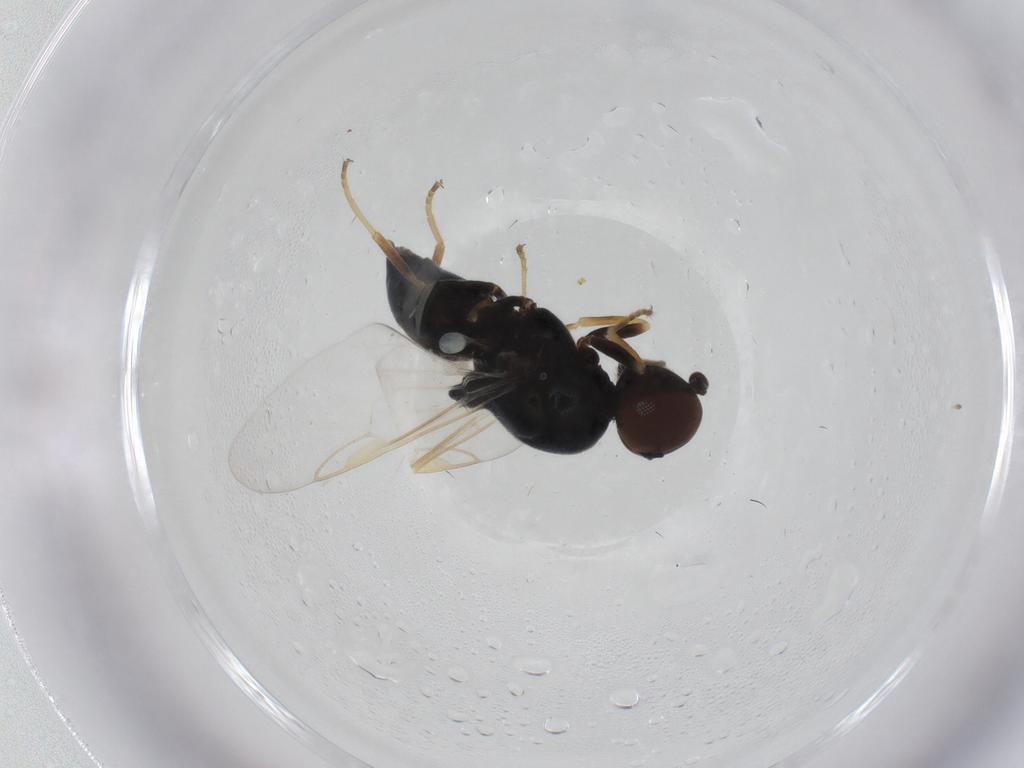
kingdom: Animalia
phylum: Arthropoda
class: Insecta
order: Diptera
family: Stratiomyidae
